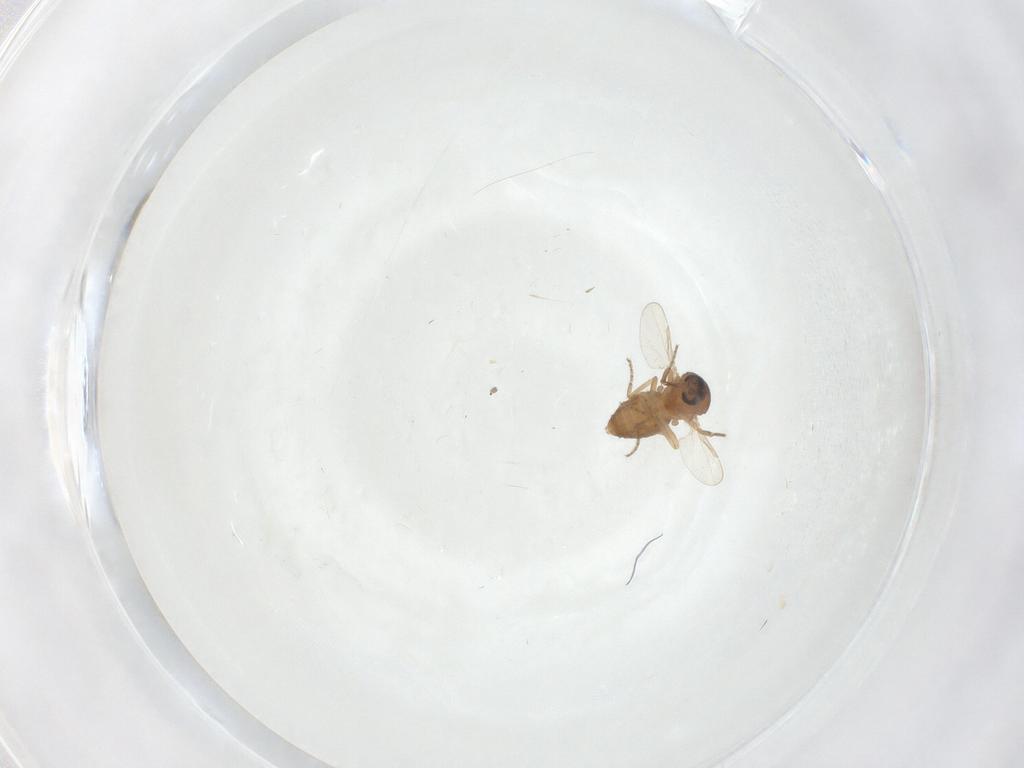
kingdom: Animalia
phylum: Arthropoda
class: Insecta
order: Diptera
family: Ceratopogonidae
